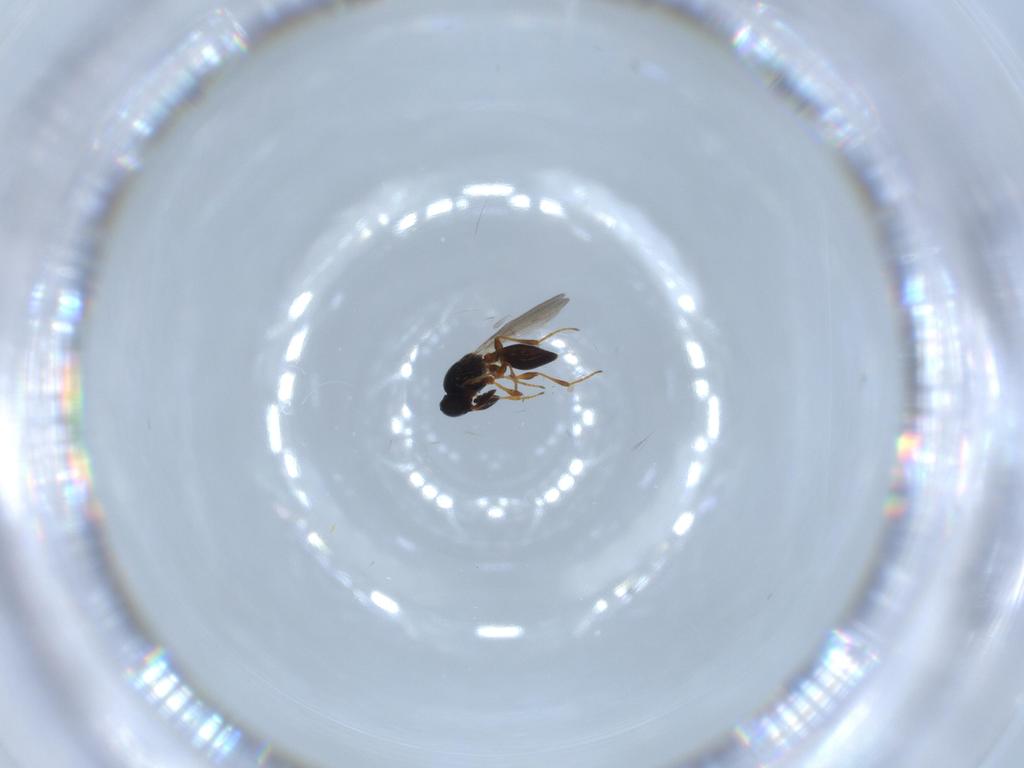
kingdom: Animalia
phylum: Arthropoda
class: Insecta
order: Hymenoptera
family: Platygastridae
